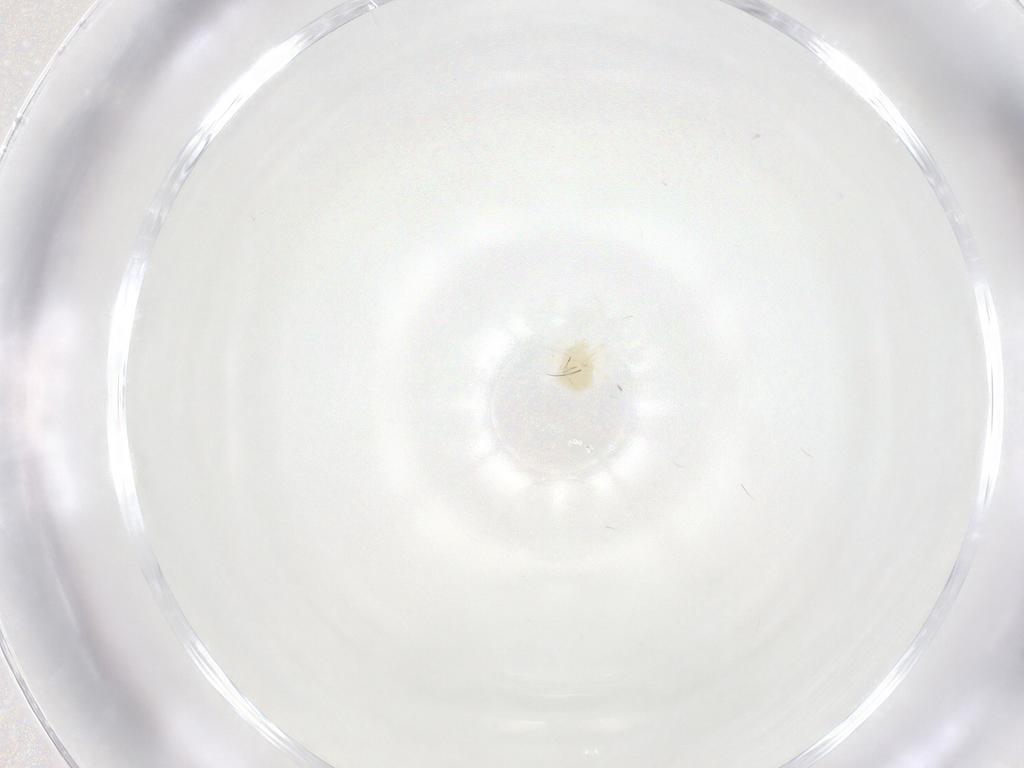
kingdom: Animalia
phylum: Arthropoda
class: Arachnida
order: Trombidiformes
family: Anystidae
